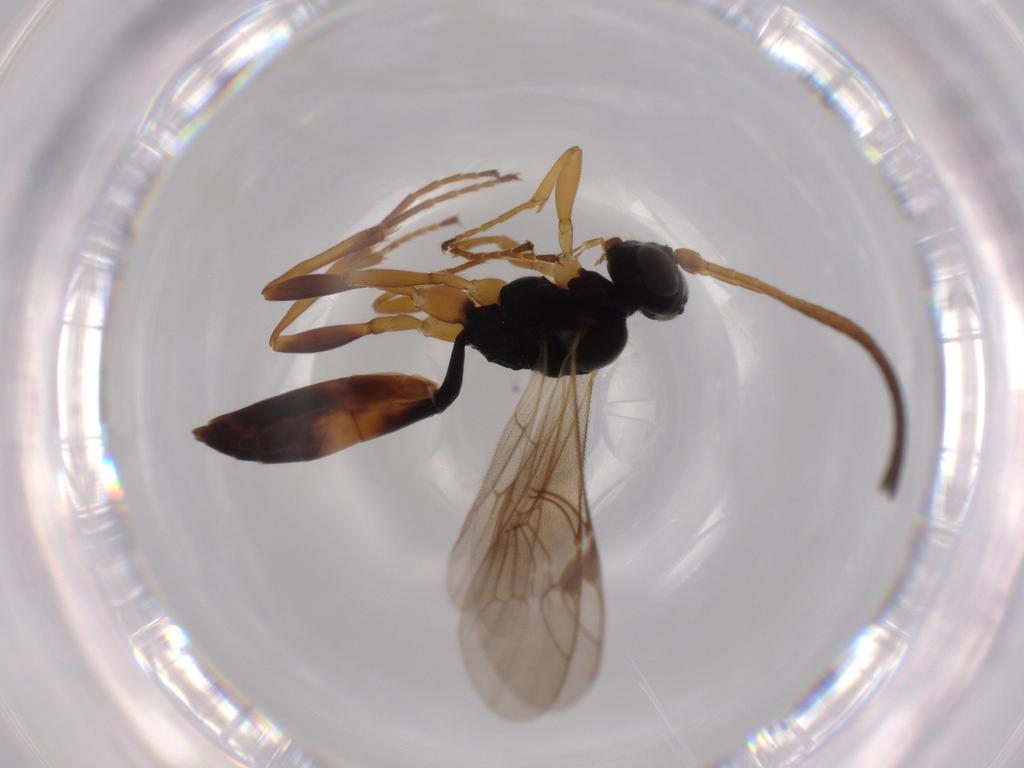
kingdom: Animalia
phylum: Arthropoda
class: Insecta
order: Hymenoptera
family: Ichneumonidae
